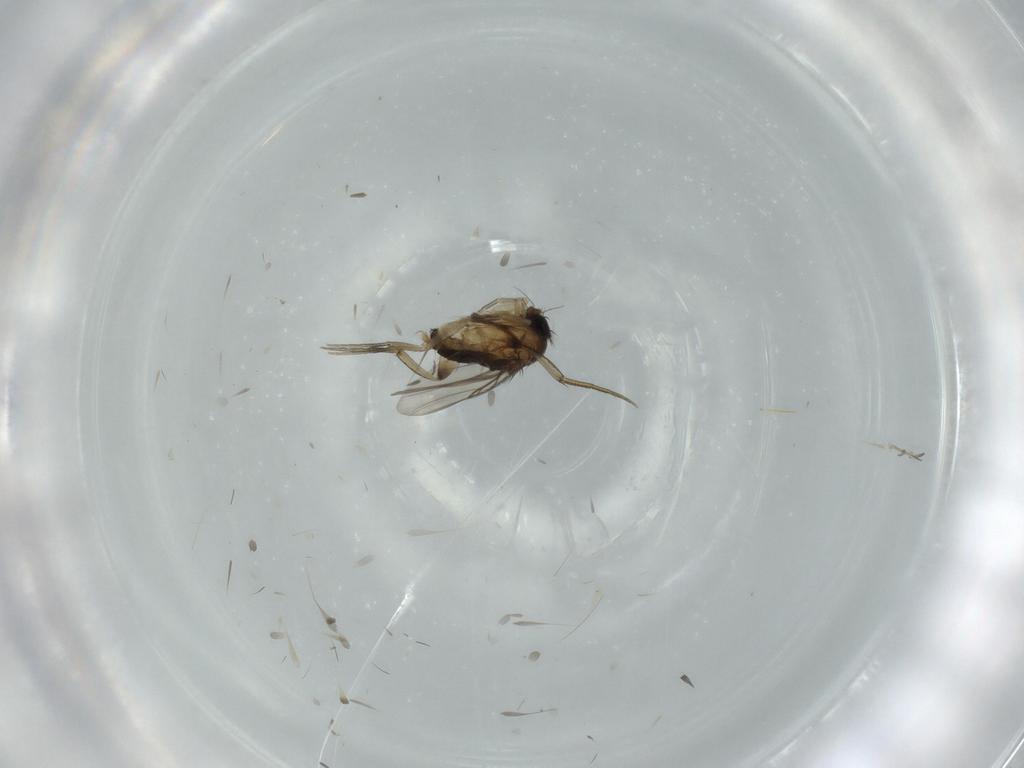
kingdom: Animalia
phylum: Arthropoda
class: Insecta
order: Diptera
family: Phoridae
